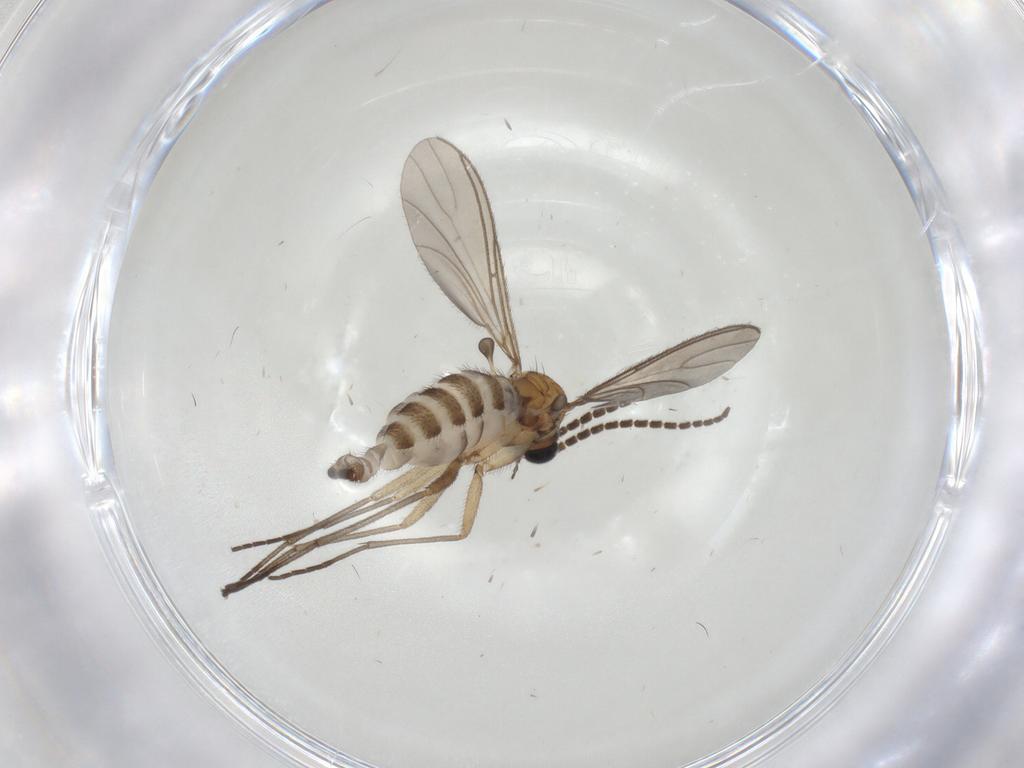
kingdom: Animalia
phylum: Arthropoda
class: Insecta
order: Diptera
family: Sciaridae
